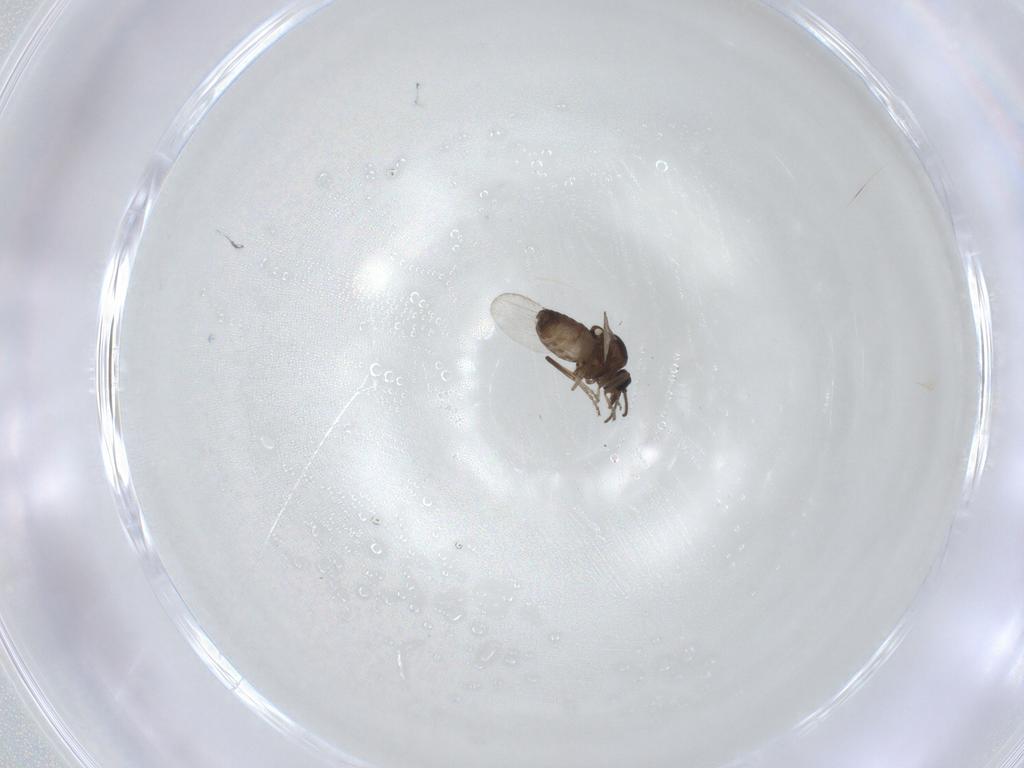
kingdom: Animalia
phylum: Arthropoda
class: Insecta
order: Diptera
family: Ceratopogonidae
